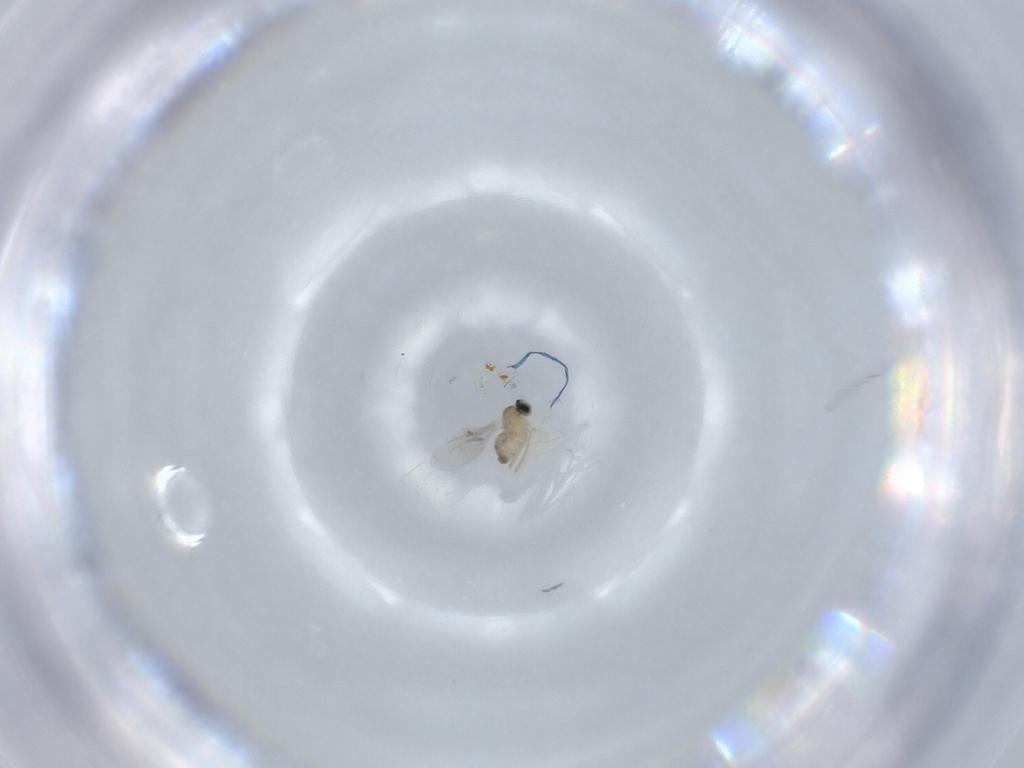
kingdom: Animalia
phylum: Arthropoda
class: Insecta
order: Diptera
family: Cecidomyiidae
